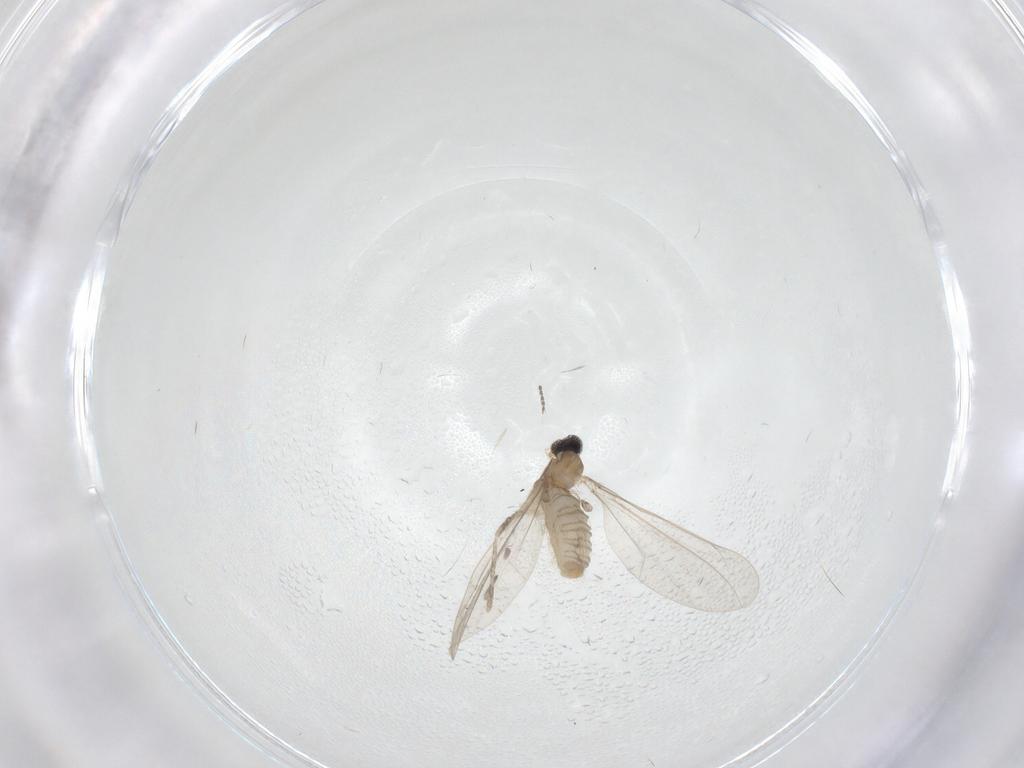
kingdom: Animalia
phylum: Arthropoda
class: Insecta
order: Diptera
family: Cecidomyiidae
